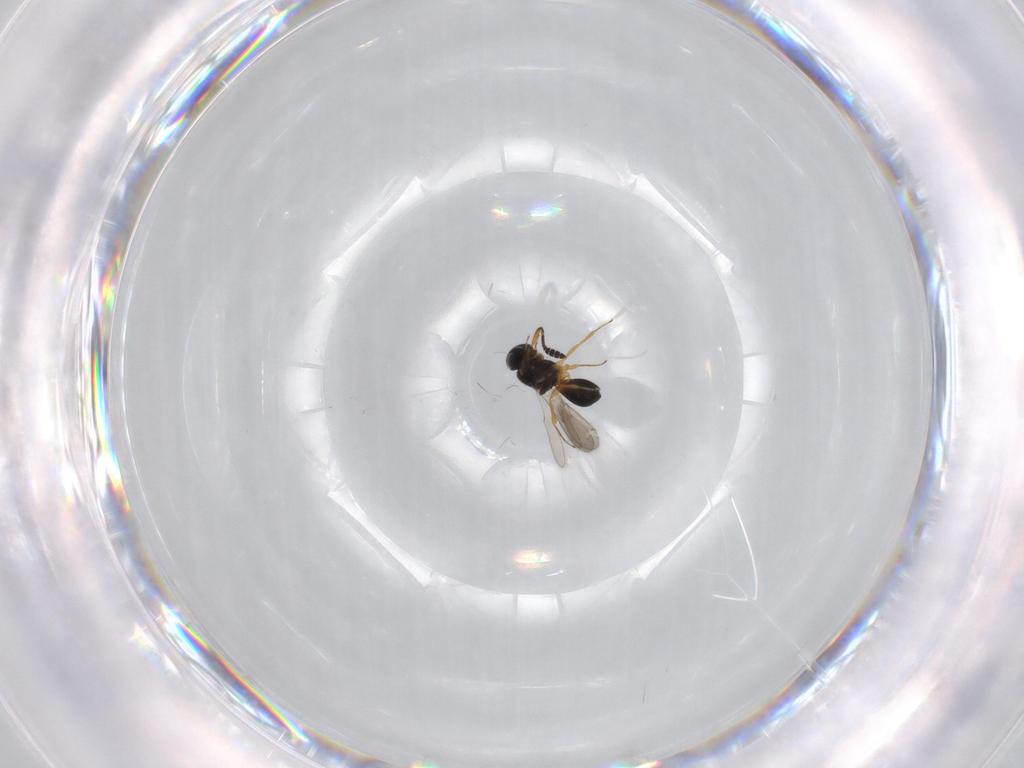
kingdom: Animalia
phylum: Arthropoda
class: Insecta
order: Hymenoptera
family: Scelionidae
